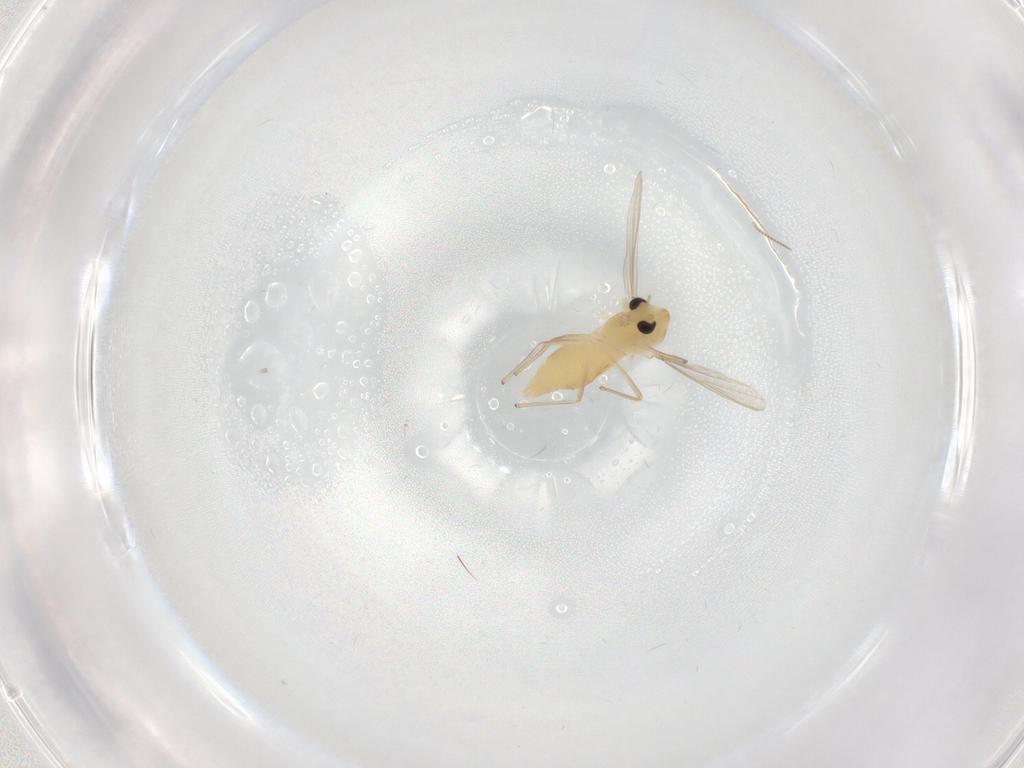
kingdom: Animalia
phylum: Arthropoda
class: Insecta
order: Diptera
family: Chironomidae
